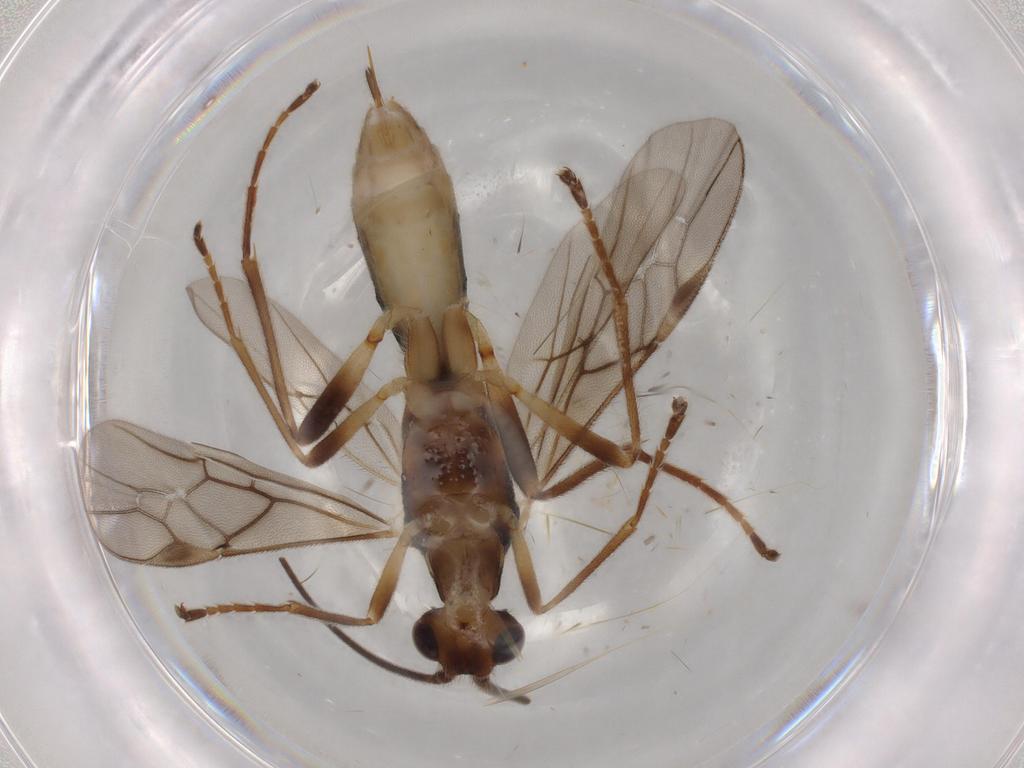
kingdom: Animalia
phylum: Arthropoda
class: Insecta
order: Hymenoptera
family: Braconidae
